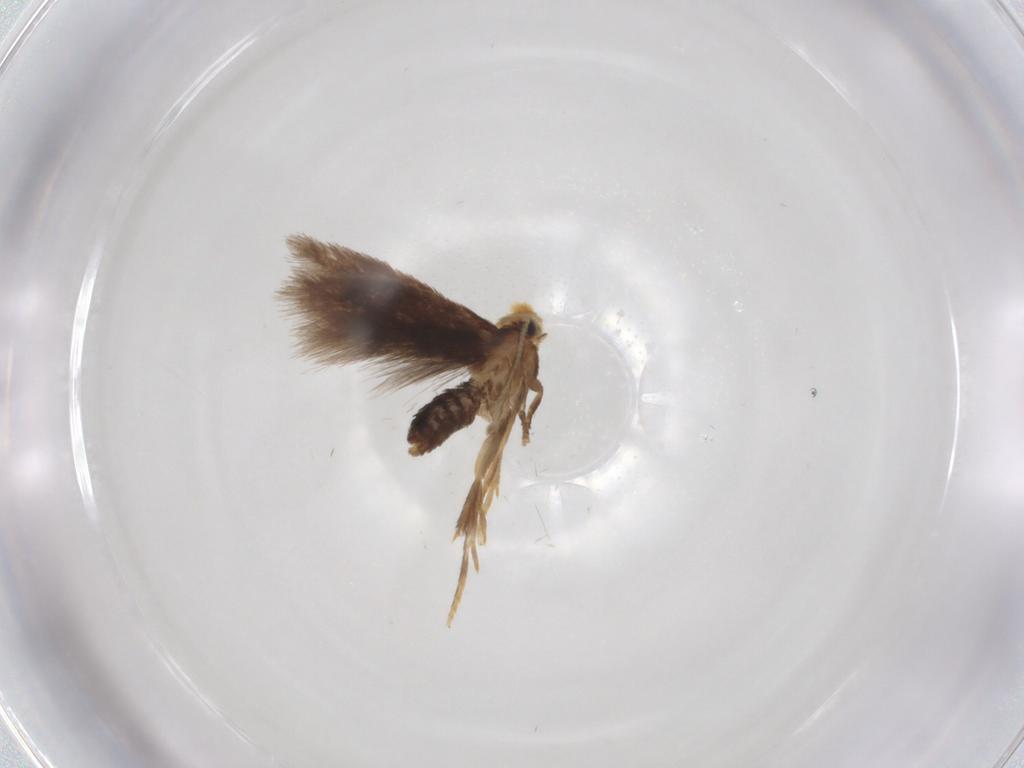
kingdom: Animalia
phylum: Arthropoda
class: Insecta
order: Lepidoptera
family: Nepticulidae
